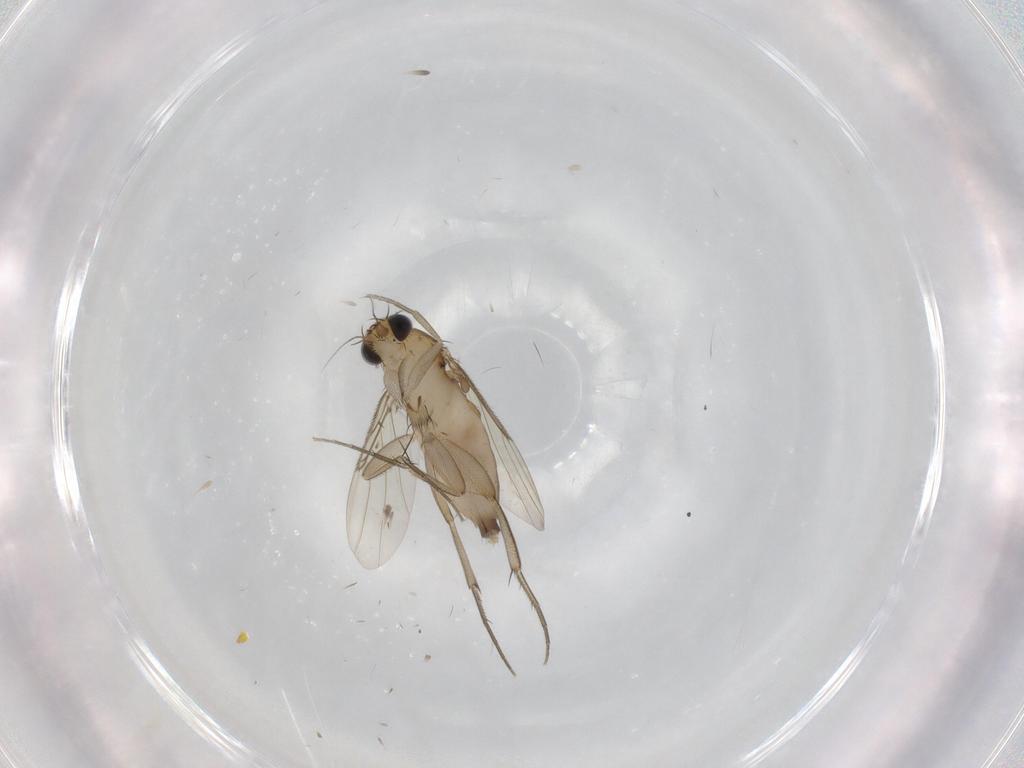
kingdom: Animalia
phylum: Arthropoda
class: Insecta
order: Diptera
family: Phoridae
